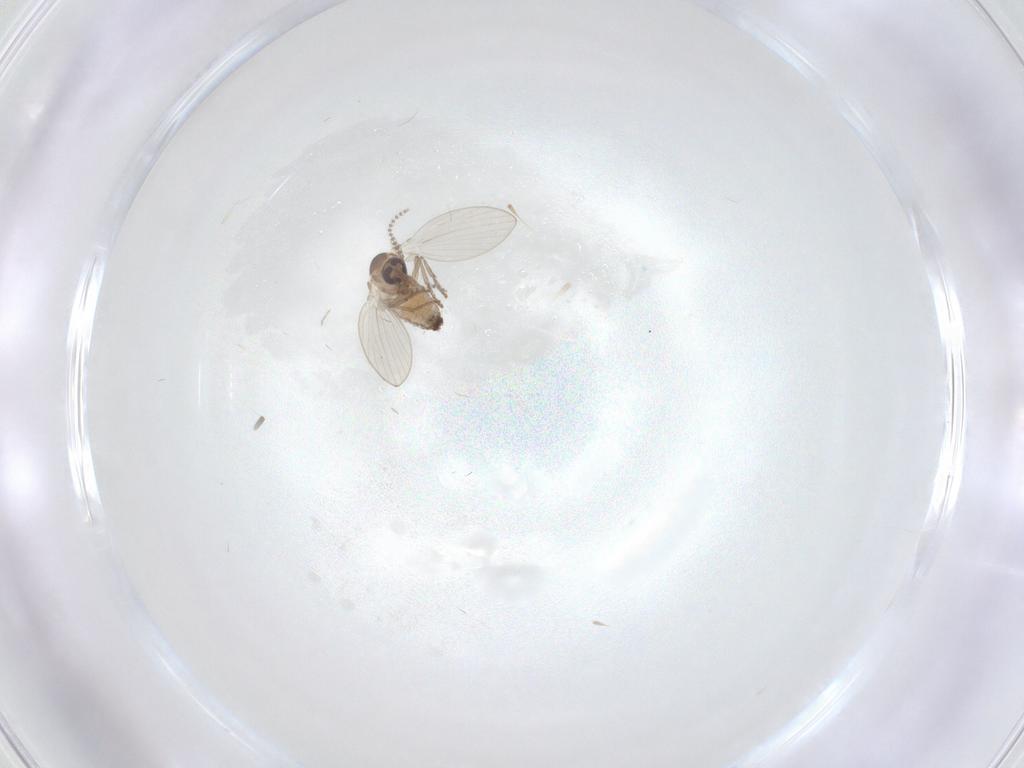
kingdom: Animalia
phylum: Arthropoda
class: Insecta
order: Diptera
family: Psychodidae
